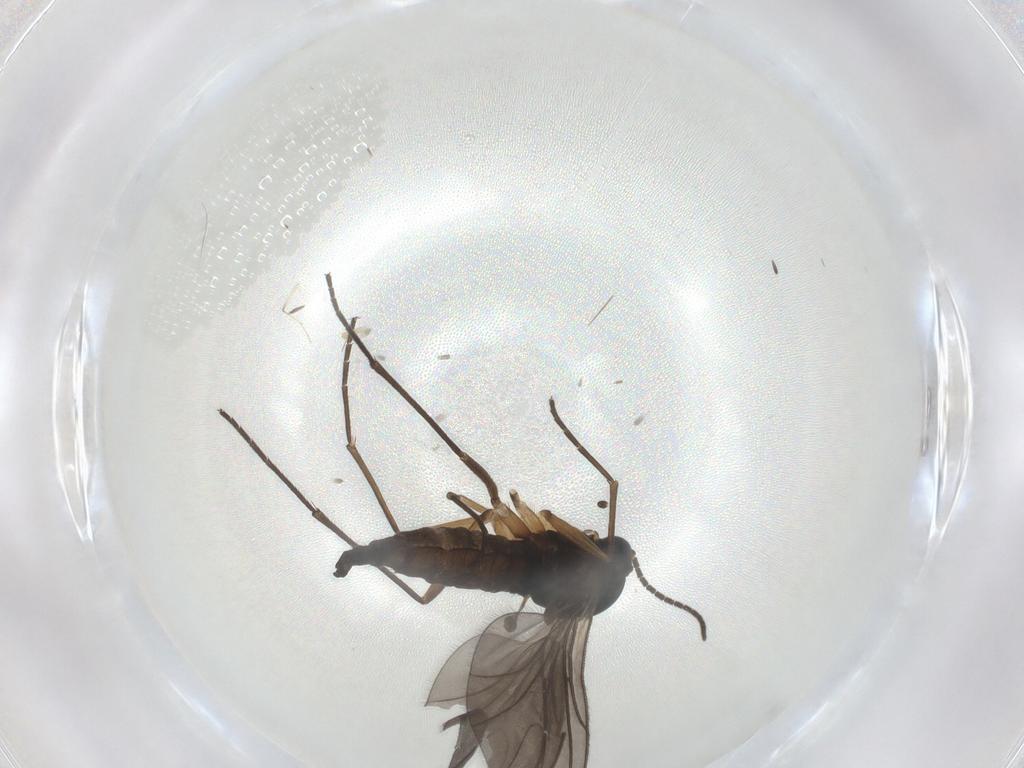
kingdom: Animalia
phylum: Arthropoda
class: Insecta
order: Diptera
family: Sciaridae
